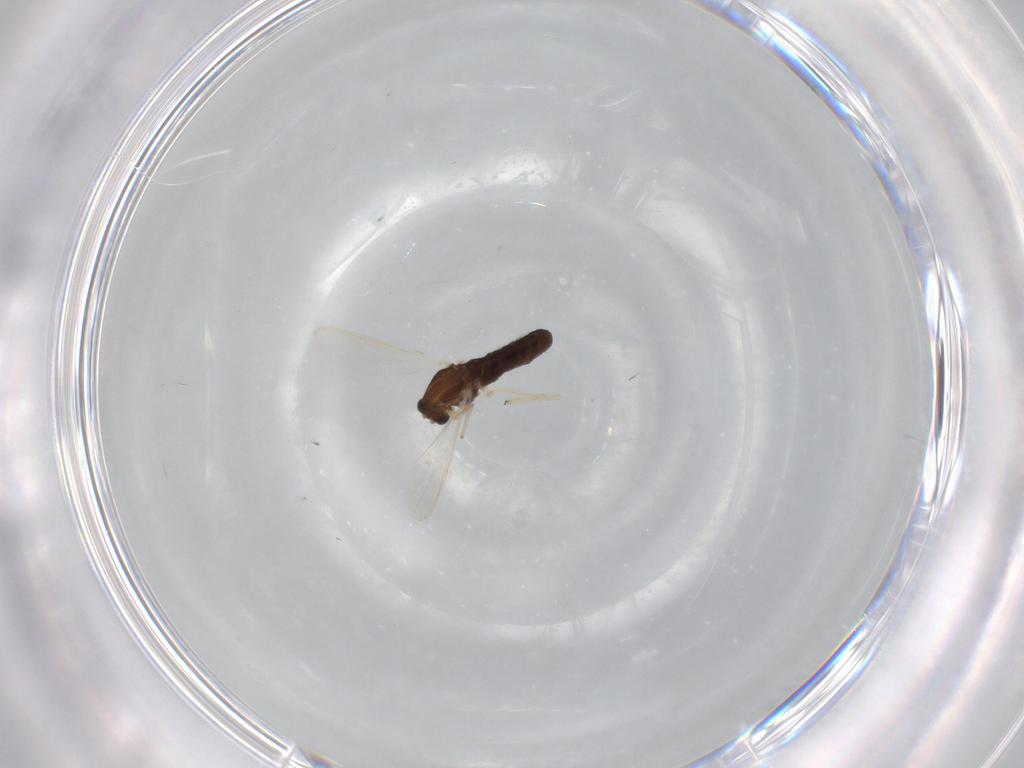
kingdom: Animalia
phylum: Arthropoda
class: Insecta
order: Diptera
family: Chironomidae
